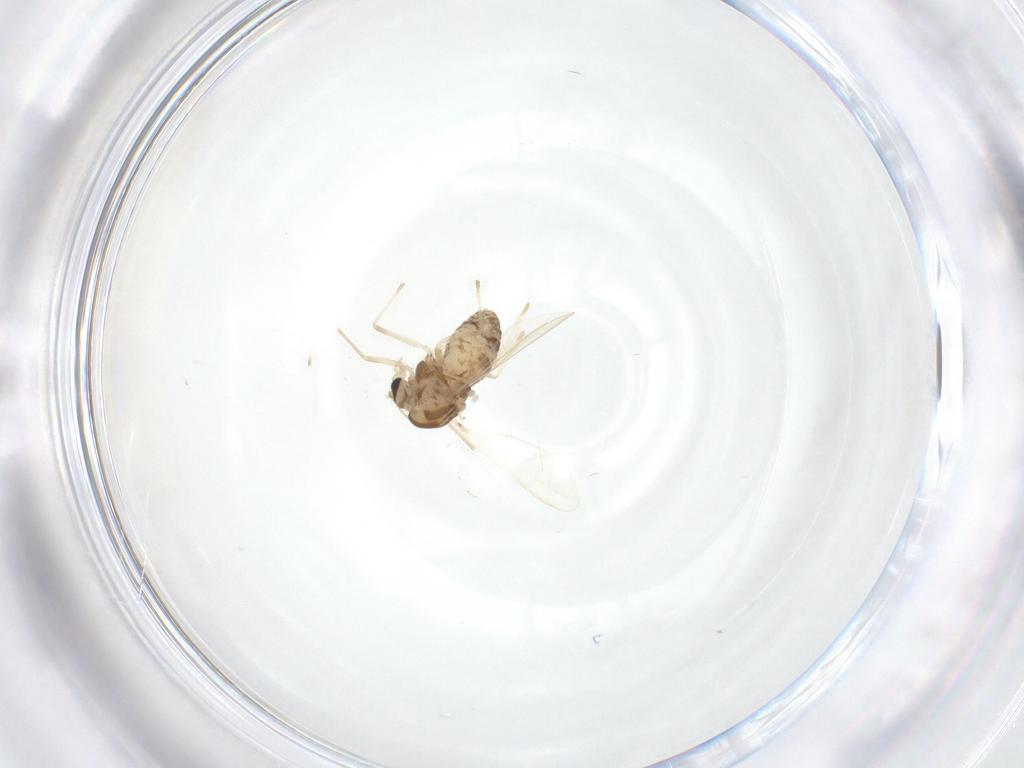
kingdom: Animalia
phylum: Arthropoda
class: Insecta
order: Diptera
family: Chironomidae
